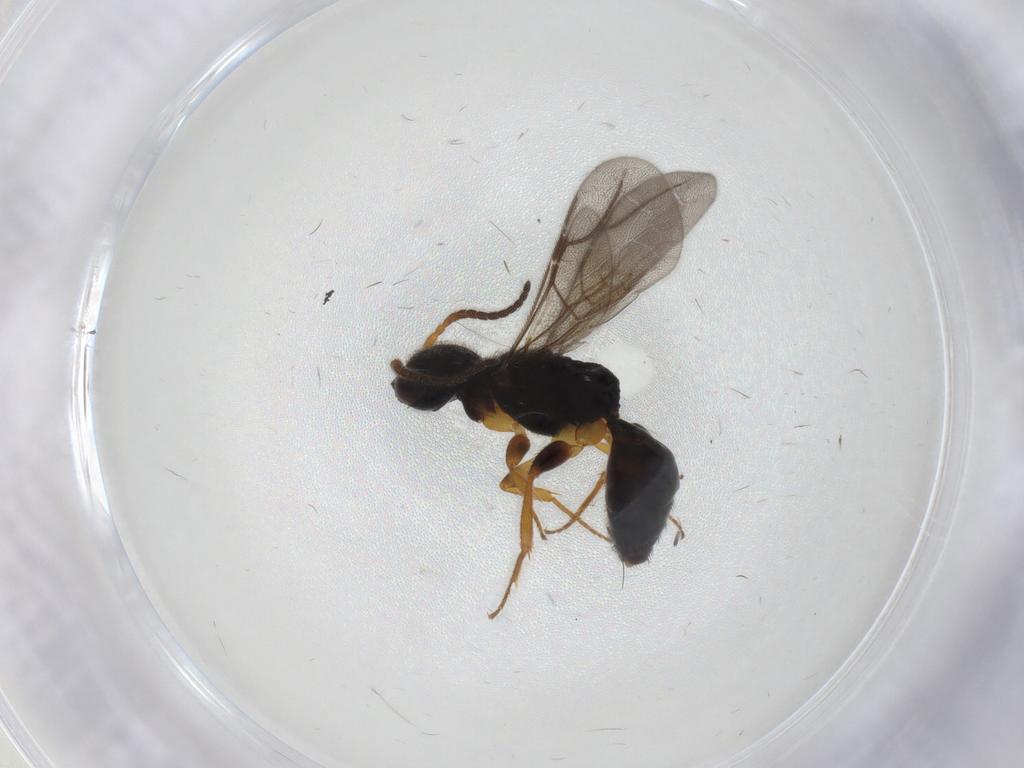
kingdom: Animalia
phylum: Arthropoda
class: Insecta
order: Hymenoptera
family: Bethylidae
